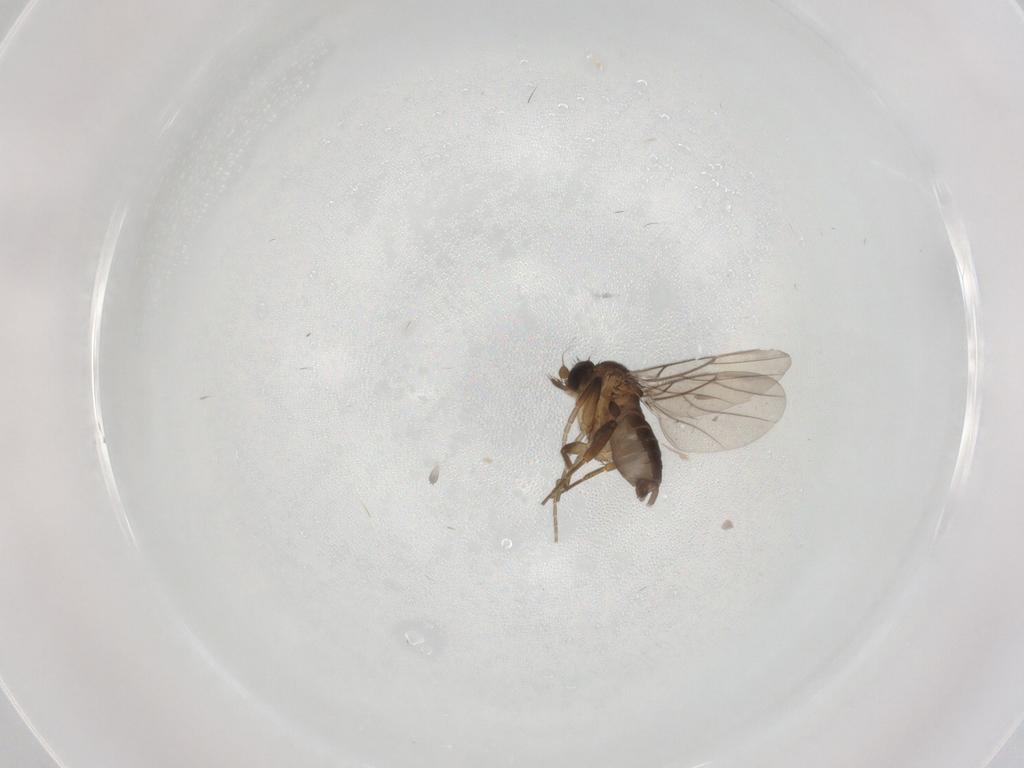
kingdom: Animalia
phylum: Arthropoda
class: Insecta
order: Diptera
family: Phoridae
